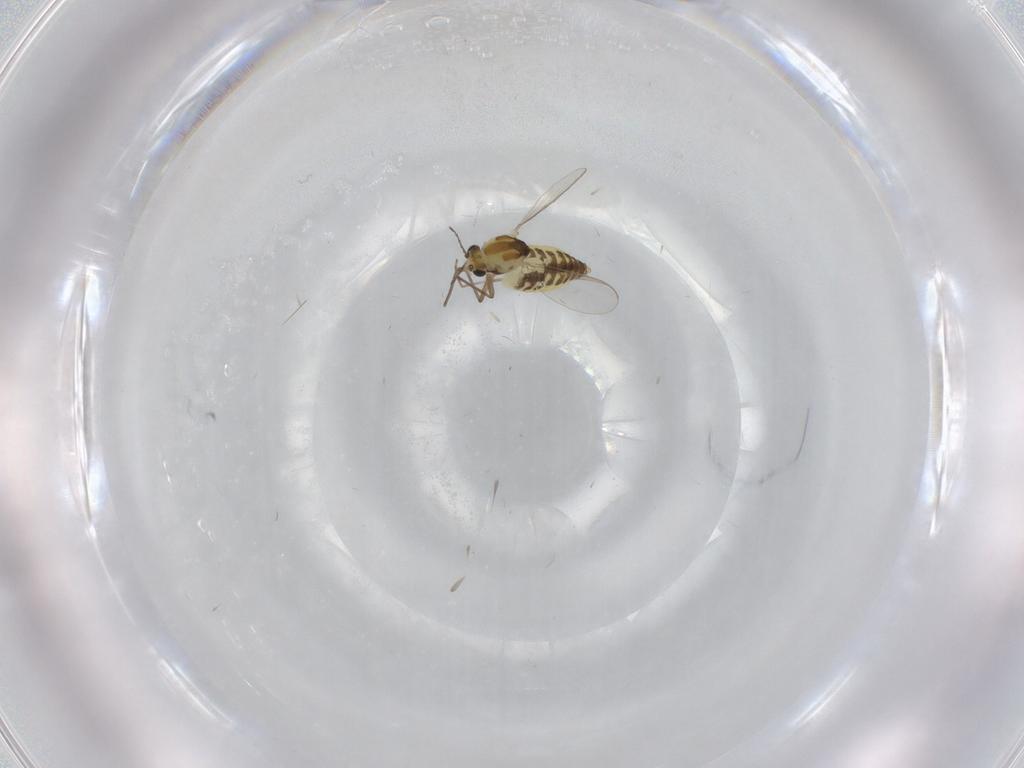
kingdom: Animalia
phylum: Arthropoda
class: Insecta
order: Diptera
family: Chironomidae
